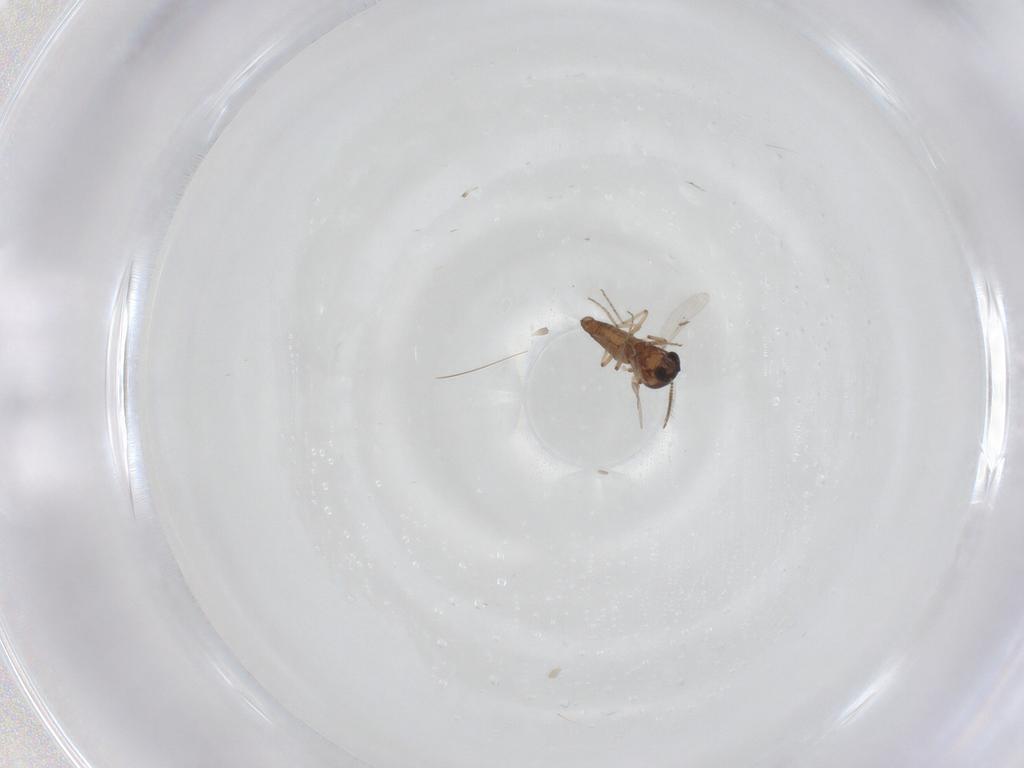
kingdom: Animalia
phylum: Arthropoda
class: Insecta
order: Diptera
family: Ceratopogonidae
